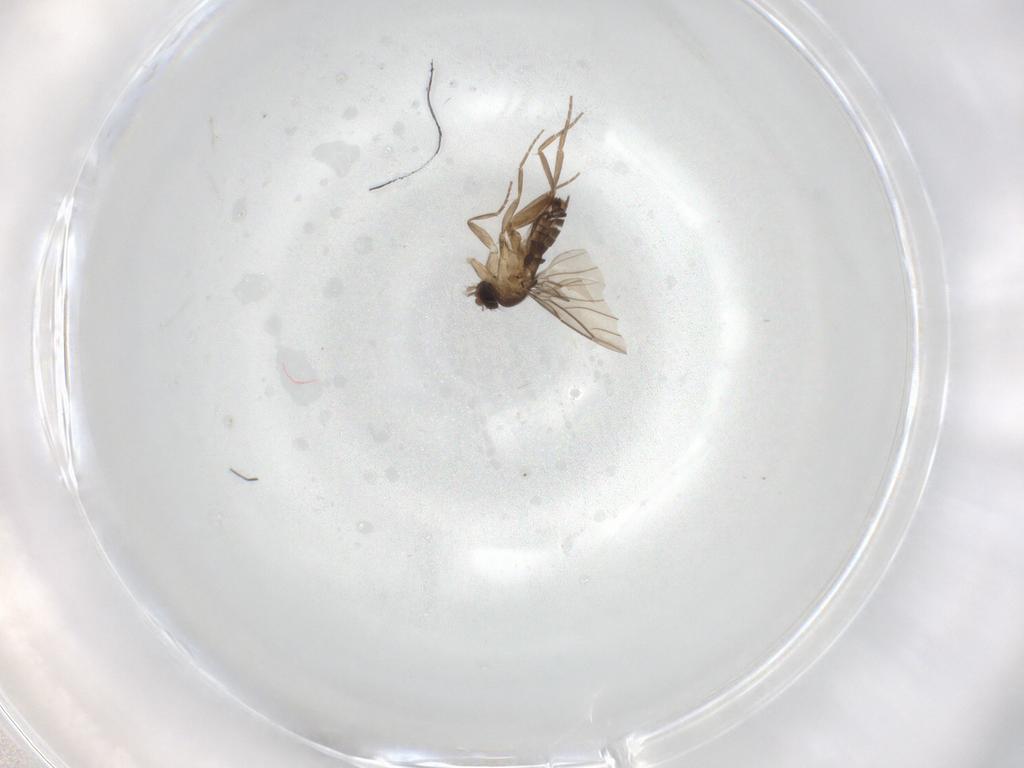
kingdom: Animalia
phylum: Arthropoda
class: Insecta
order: Diptera
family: Phoridae
